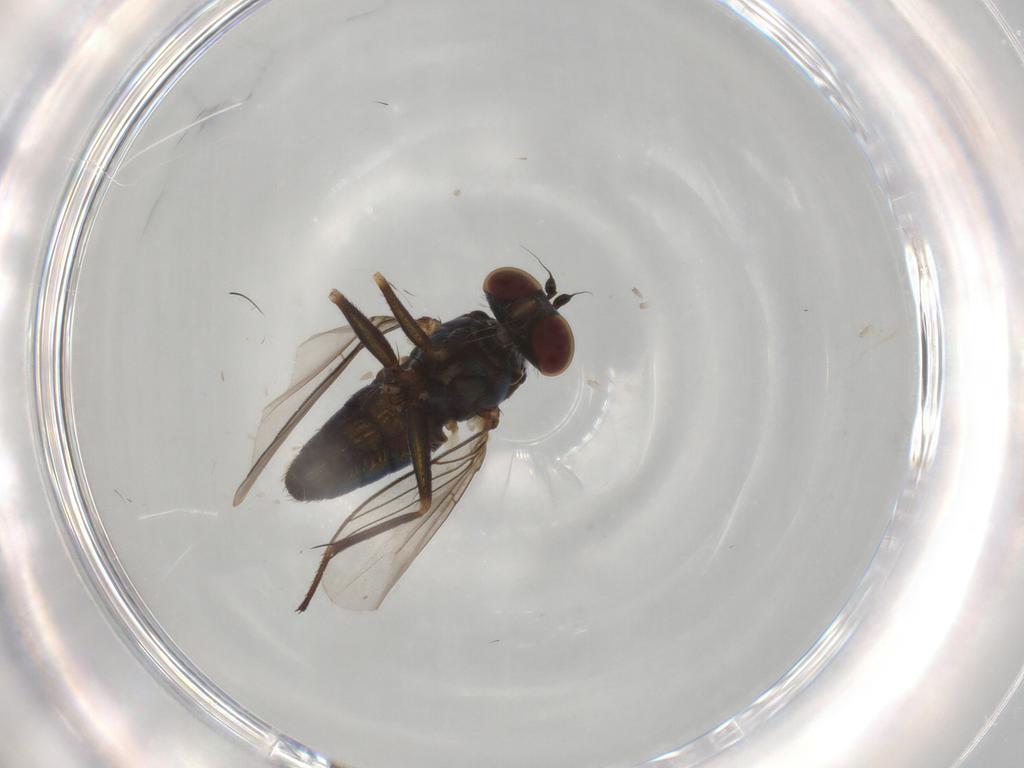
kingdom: Animalia
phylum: Arthropoda
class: Insecta
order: Diptera
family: Dolichopodidae
